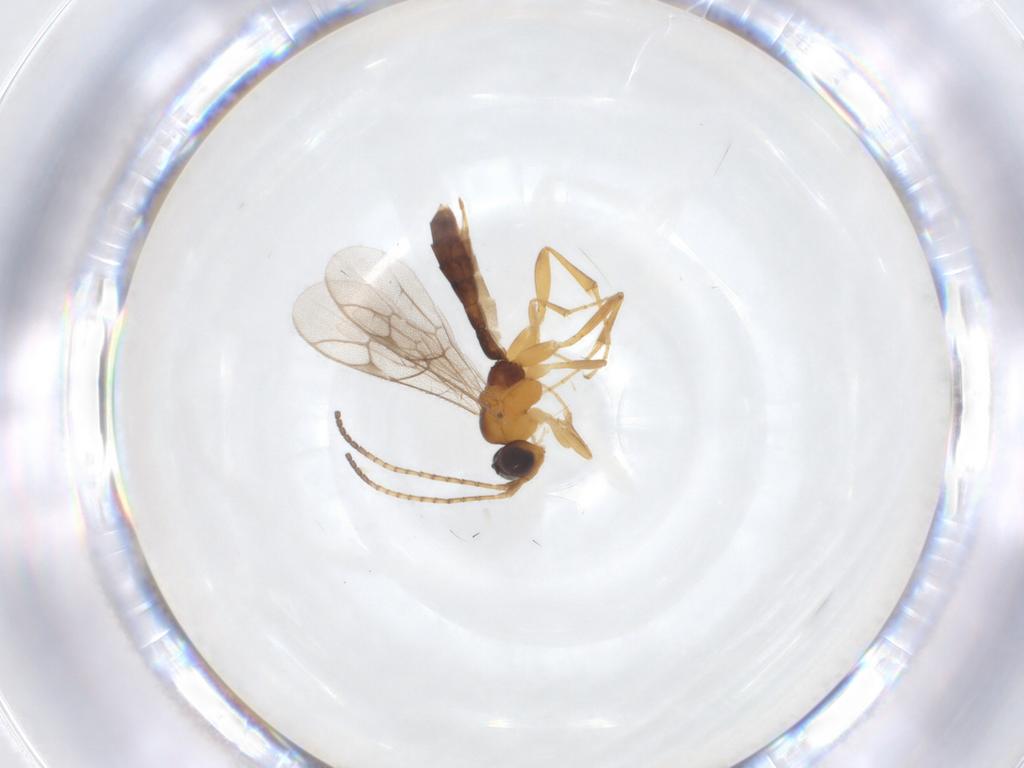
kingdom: Animalia
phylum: Arthropoda
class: Insecta
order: Hymenoptera
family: Ichneumonidae
